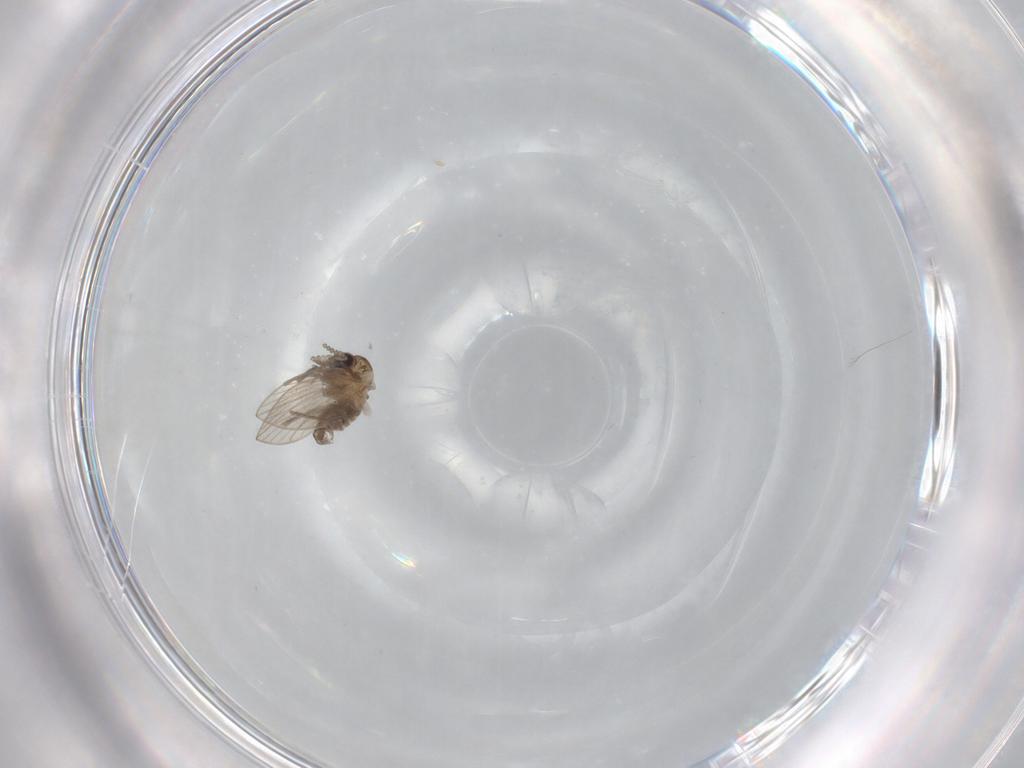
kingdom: Animalia
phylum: Arthropoda
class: Insecta
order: Diptera
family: Psychodidae
